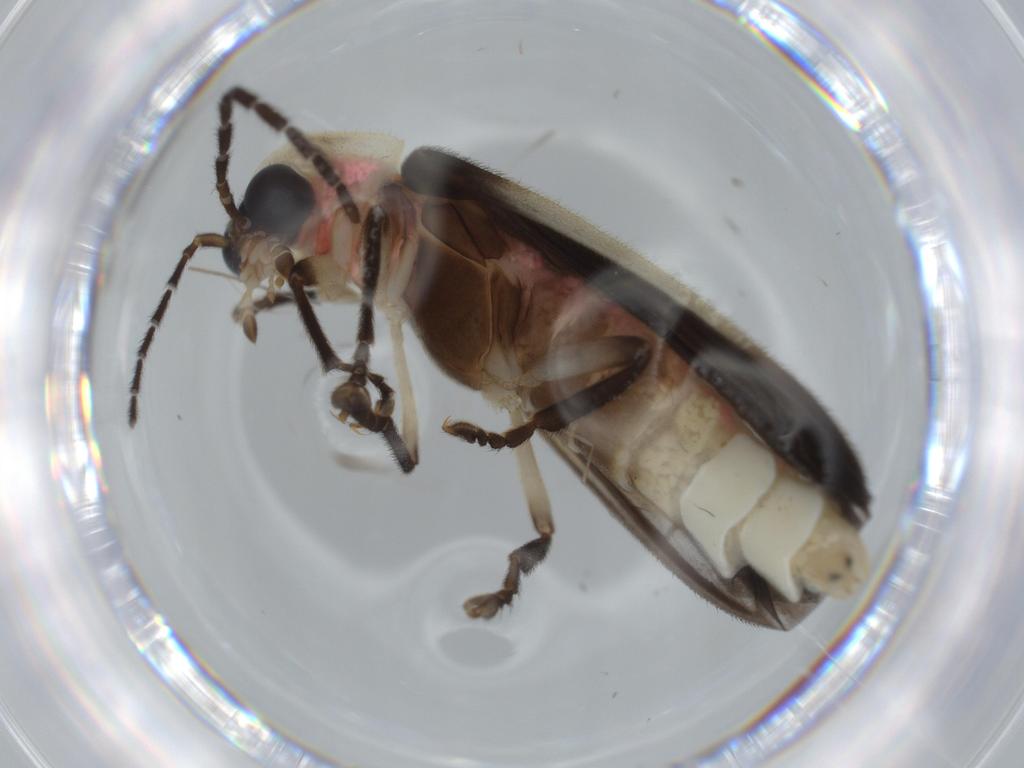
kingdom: Animalia
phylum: Arthropoda
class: Insecta
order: Coleoptera
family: Lampyridae
